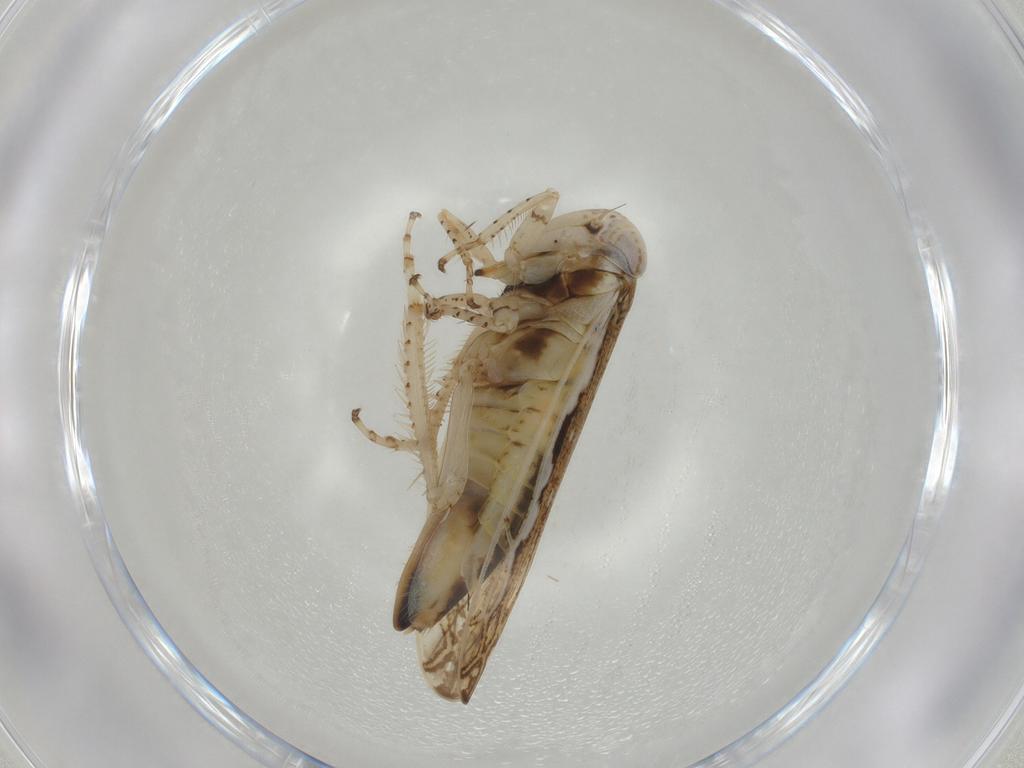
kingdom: Animalia
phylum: Arthropoda
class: Insecta
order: Hemiptera
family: Cicadellidae
